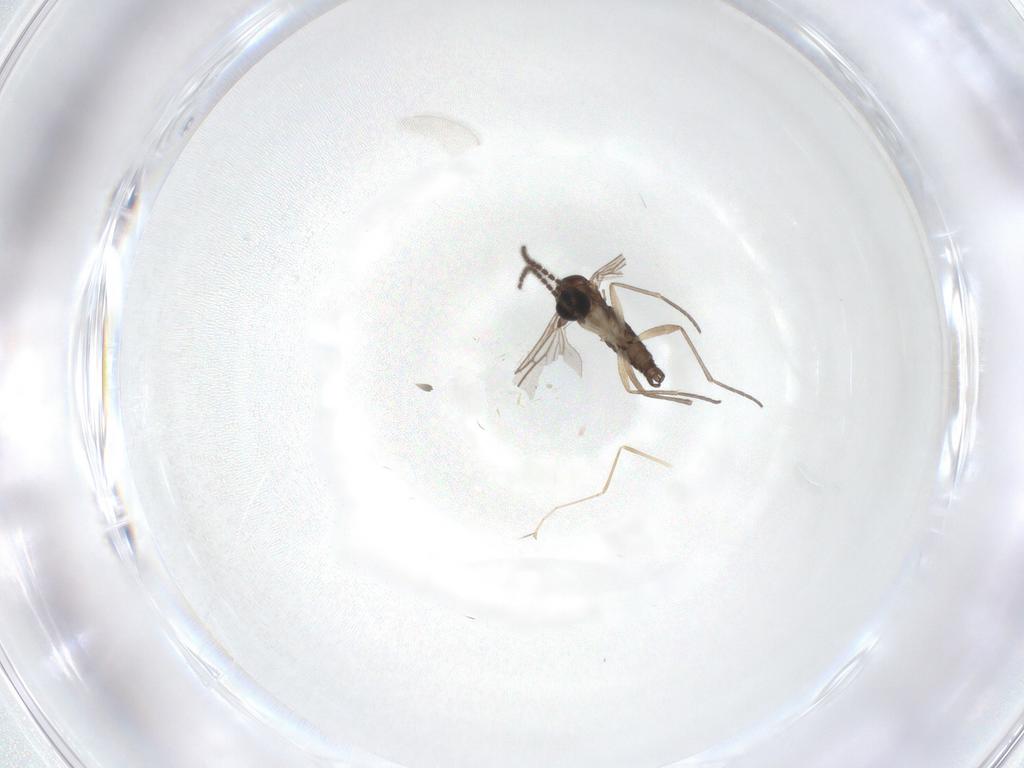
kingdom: Animalia
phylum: Arthropoda
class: Insecta
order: Diptera
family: Sciaridae
